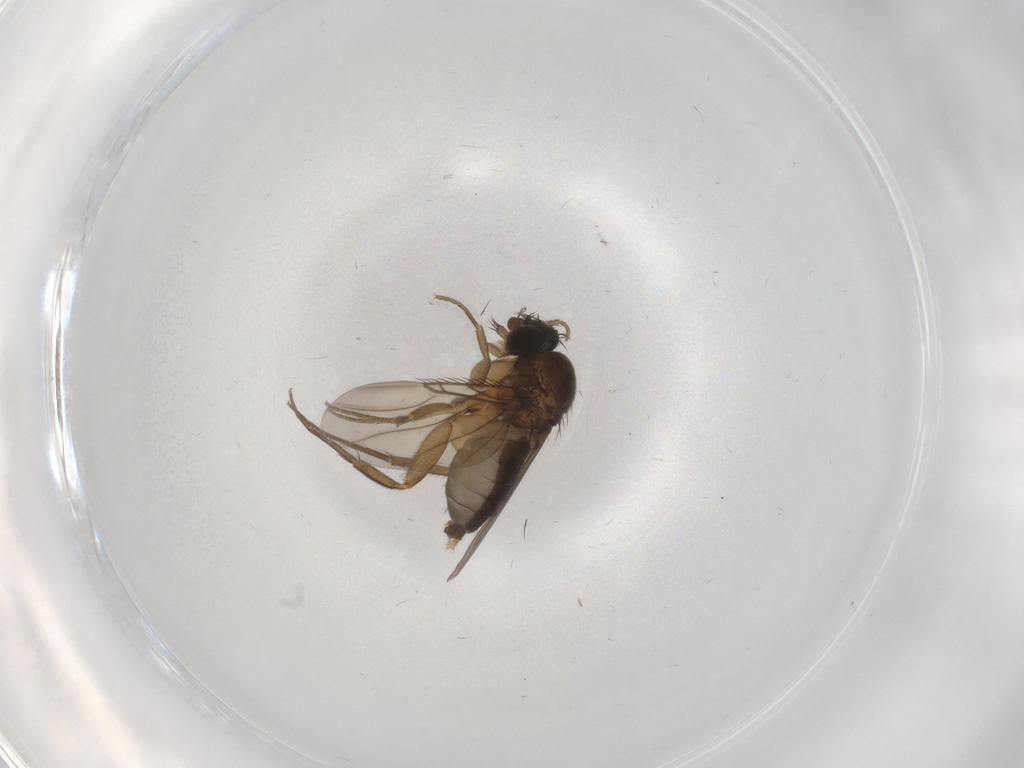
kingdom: Animalia
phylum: Arthropoda
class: Insecta
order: Diptera
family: Phoridae
